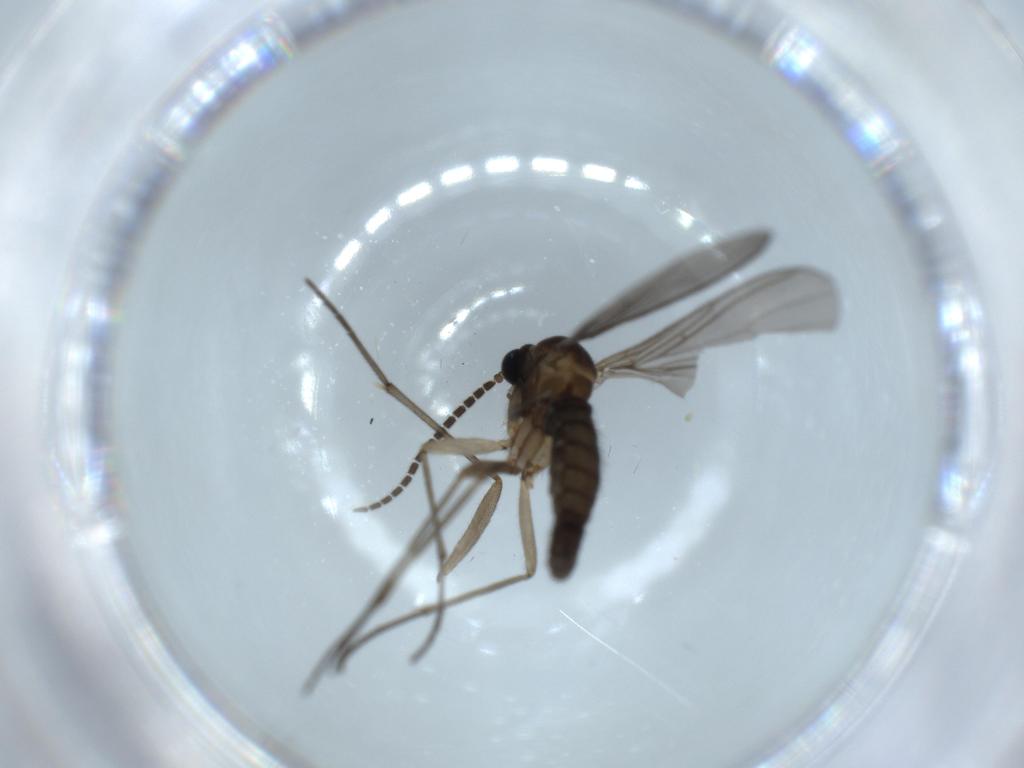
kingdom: Animalia
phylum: Arthropoda
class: Insecta
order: Diptera
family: Sciaridae
